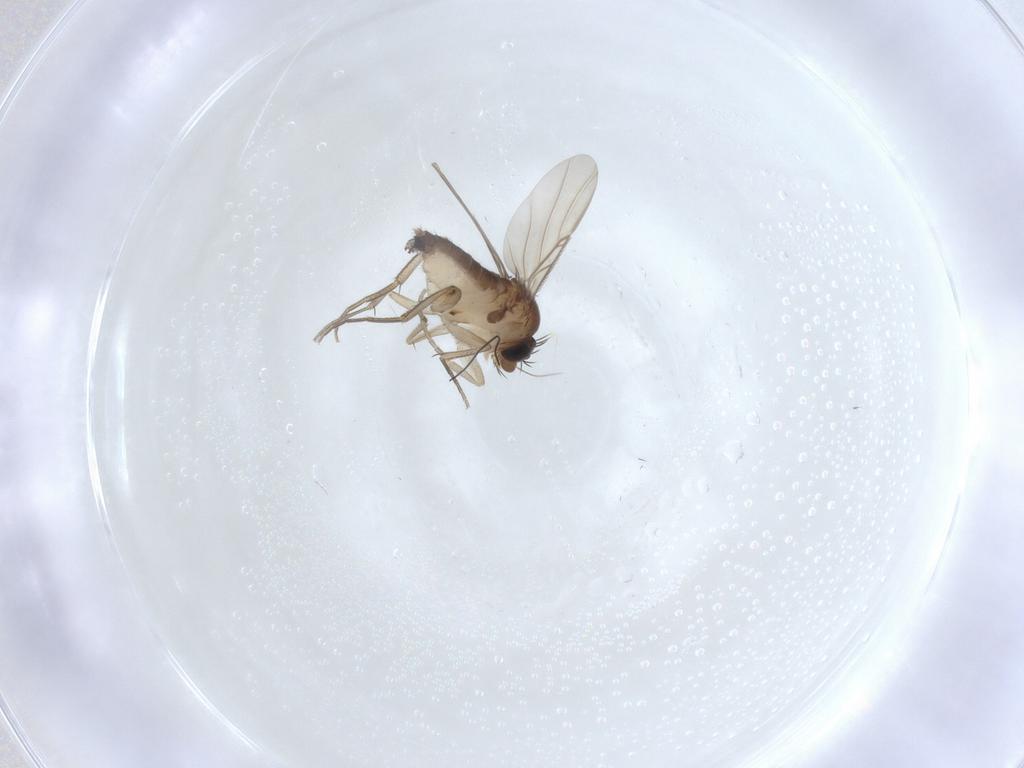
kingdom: Animalia
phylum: Arthropoda
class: Insecta
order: Diptera
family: Phoridae
